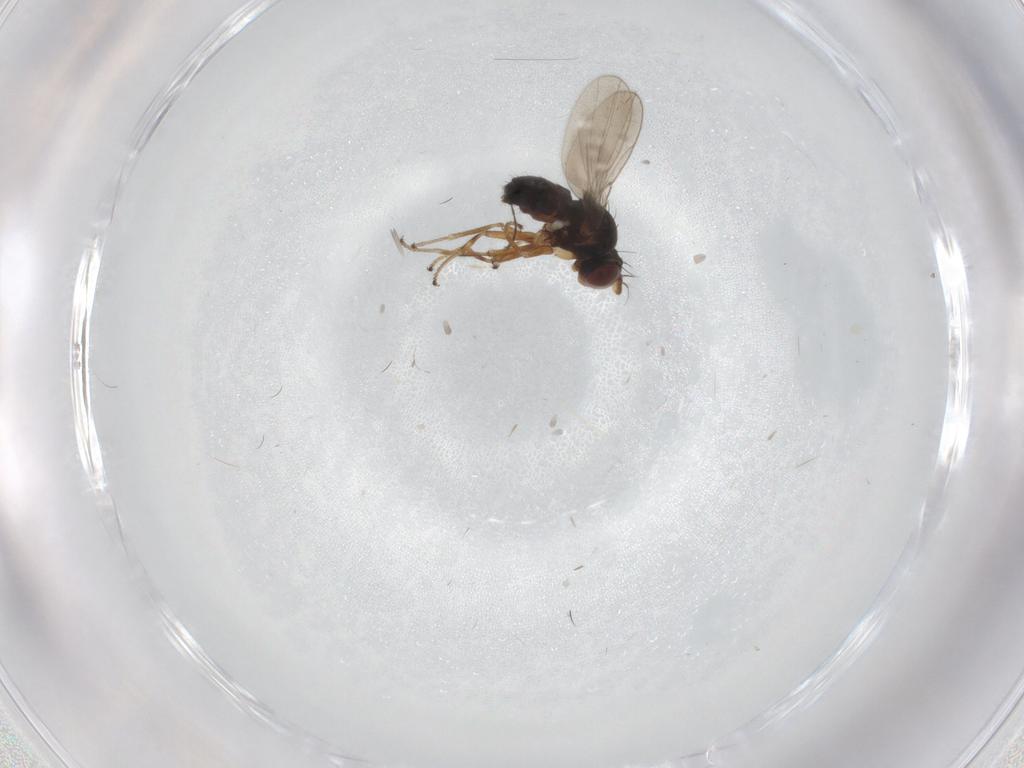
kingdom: Animalia
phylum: Arthropoda
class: Insecta
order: Diptera
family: Ephydridae
